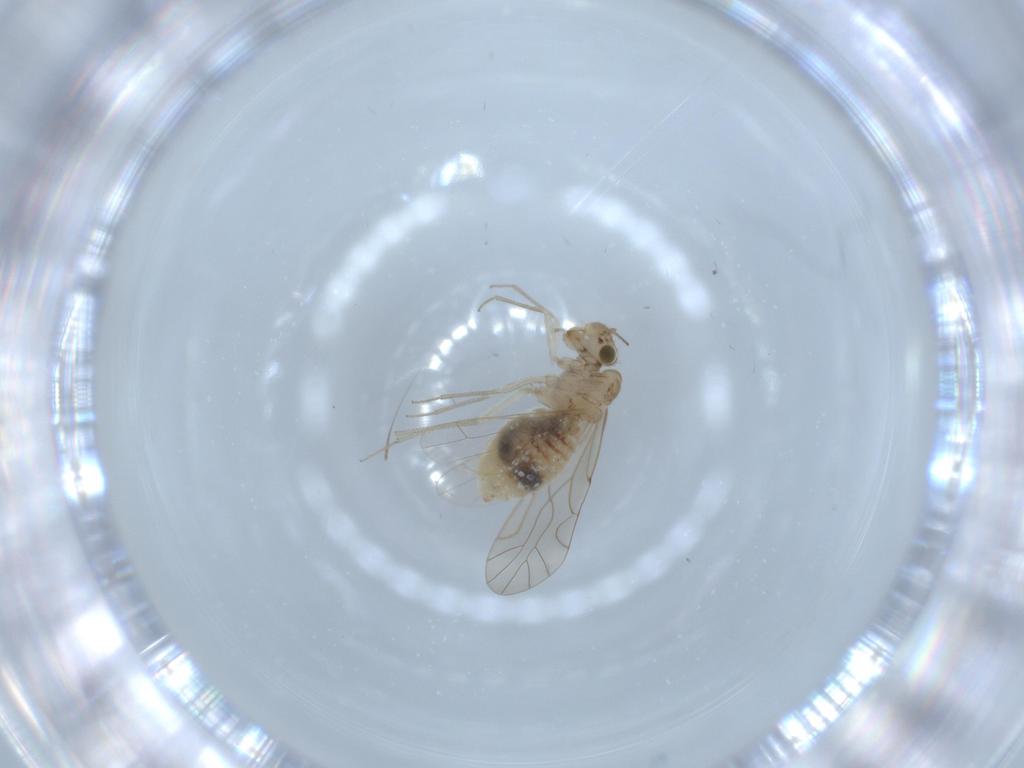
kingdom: Animalia
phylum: Arthropoda
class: Insecta
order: Psocodea
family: Lachesillidae
